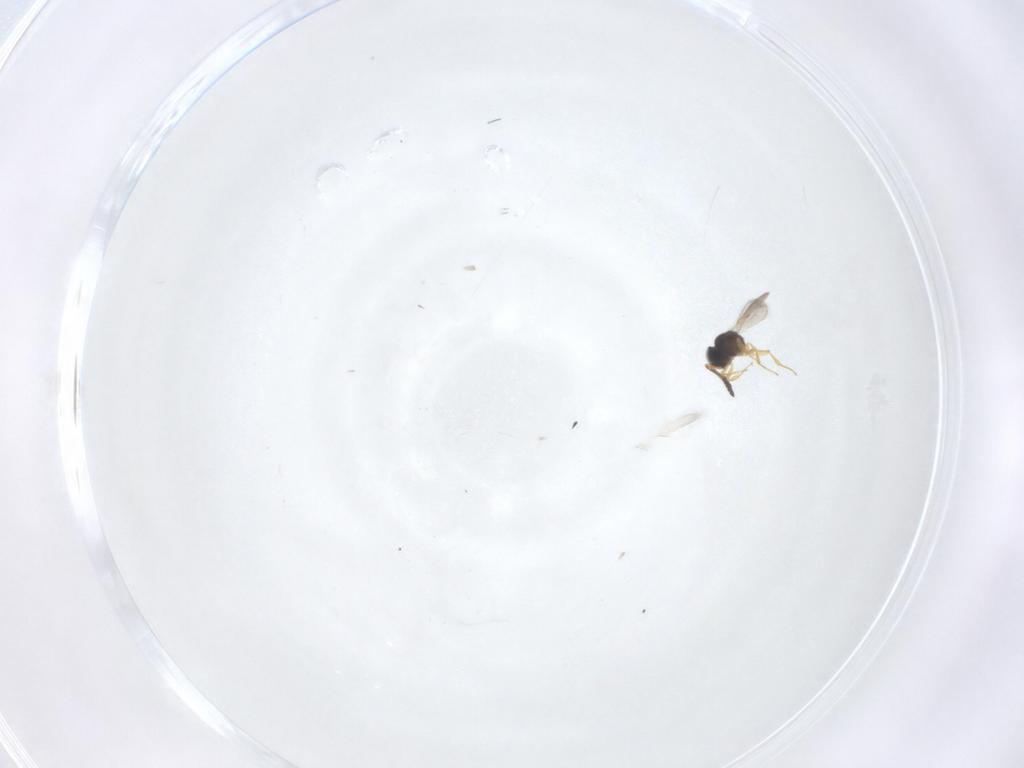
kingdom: Animalia
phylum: Arthropoda
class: Insecta
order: Hymenoptera
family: Scelionidae
